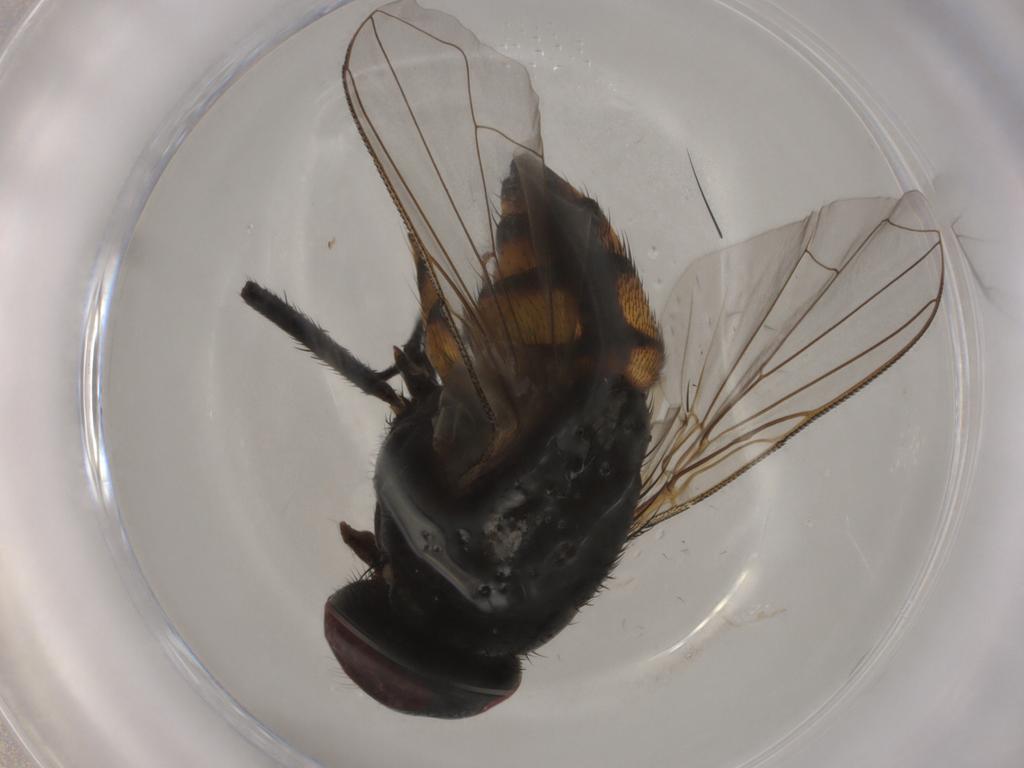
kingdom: Animalia
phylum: Arthropoda
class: Insecta
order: Diptera
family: Muscidae
